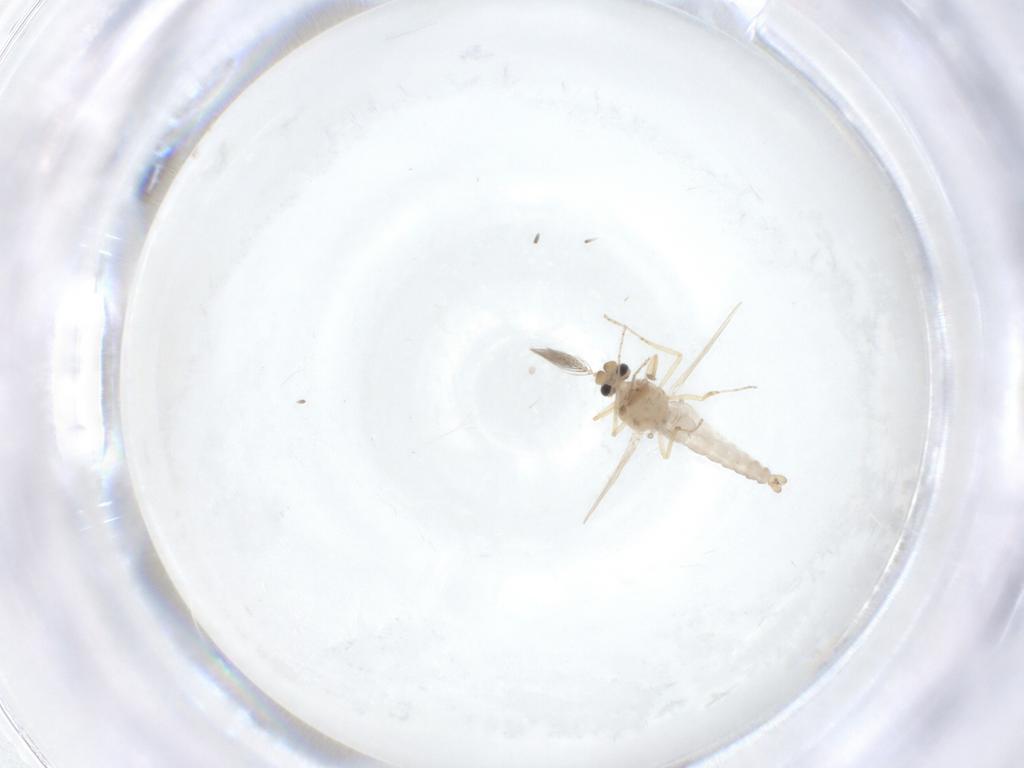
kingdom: Animalia
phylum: Arthropoda
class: Insecta
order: Diptera
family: Ceratopogonidae
